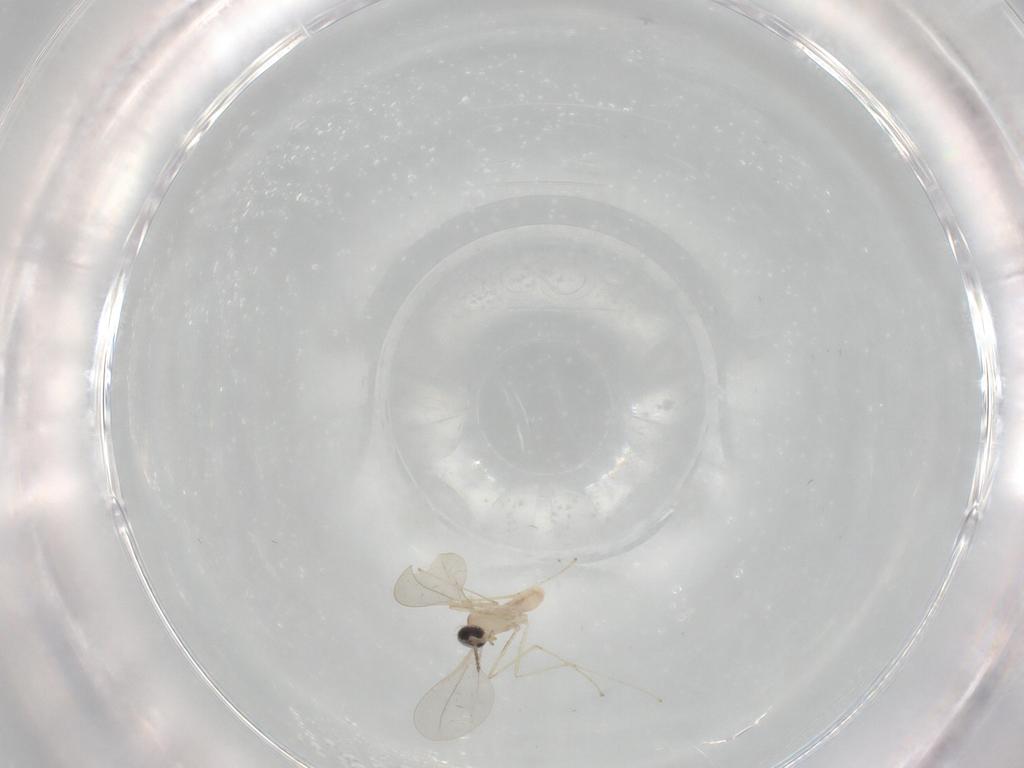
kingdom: Animalia
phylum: Arthropoda
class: Insecta
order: Diptera
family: Cecidomyiidae
